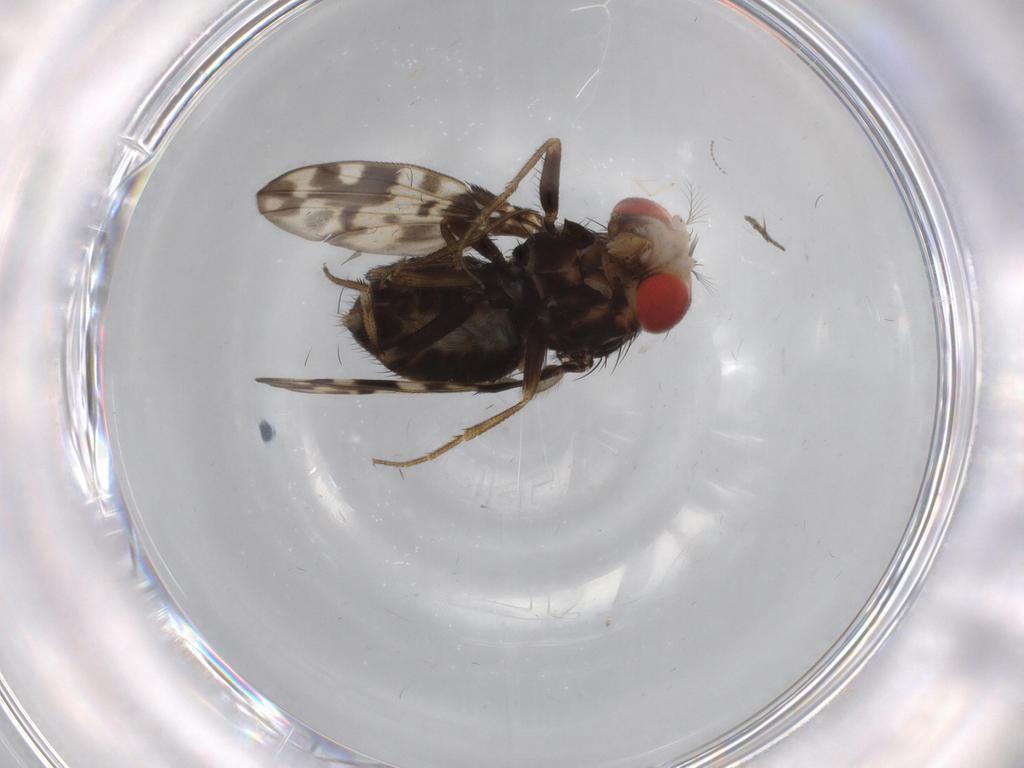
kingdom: Animalia
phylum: Arthropoda
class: Insecta
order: Diptera
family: Drosophilidae
